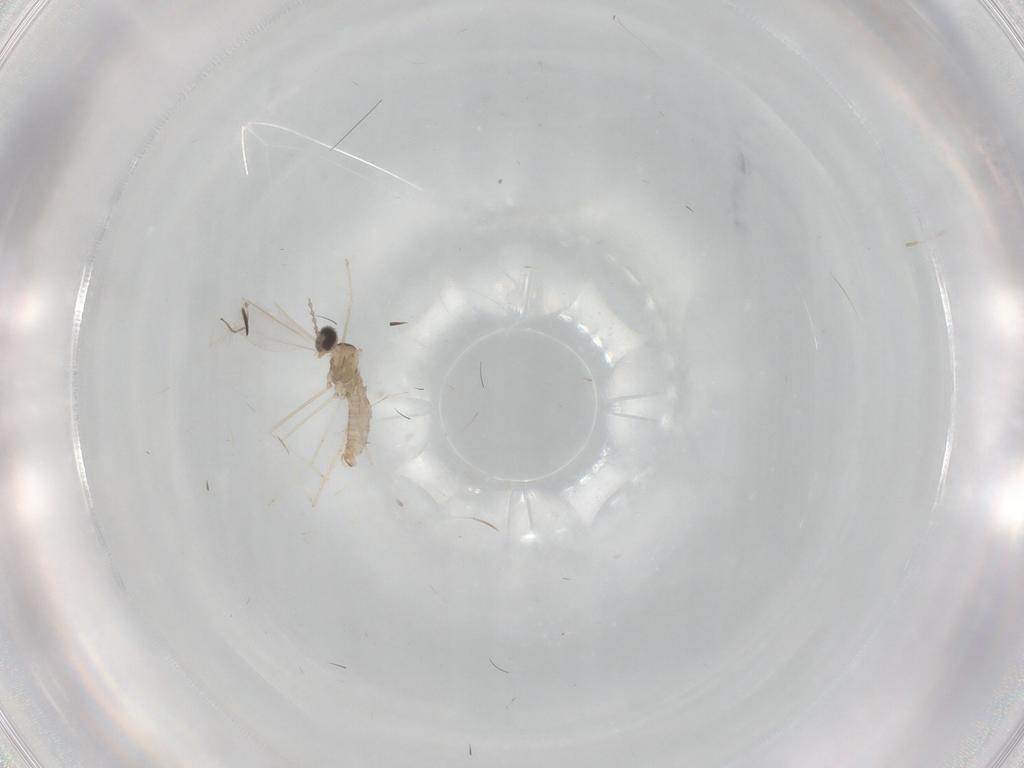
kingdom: Animalia
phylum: Arthropoda
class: Insecta
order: Diptera
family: Cecidomyiidae
